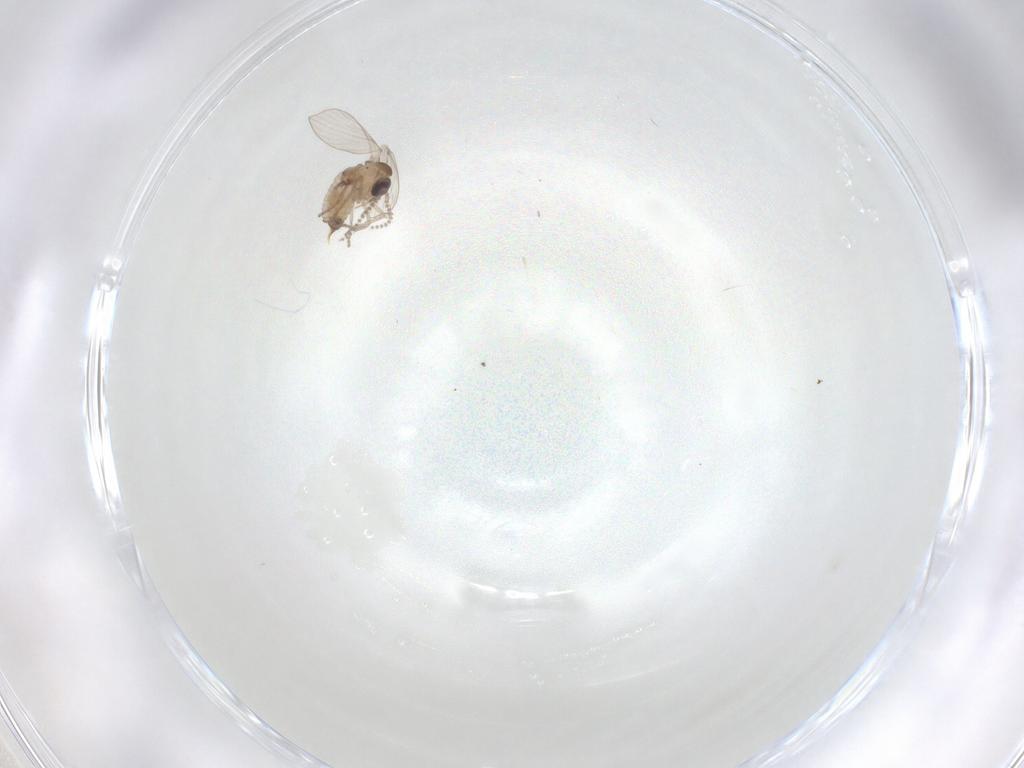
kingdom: Animalia
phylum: Arthropoda
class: Insecta
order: Diptera
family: Psychodidae
